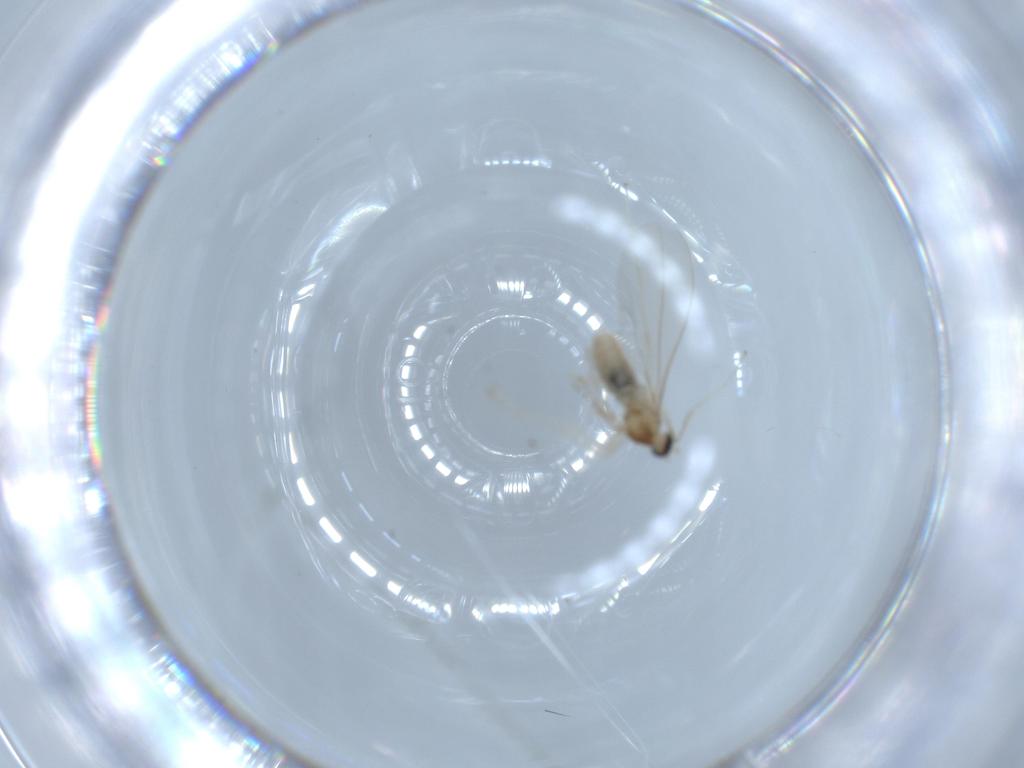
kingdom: Animalia
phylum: Arthropoda
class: Insecta
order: Diptera
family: Cecidomyiidae
